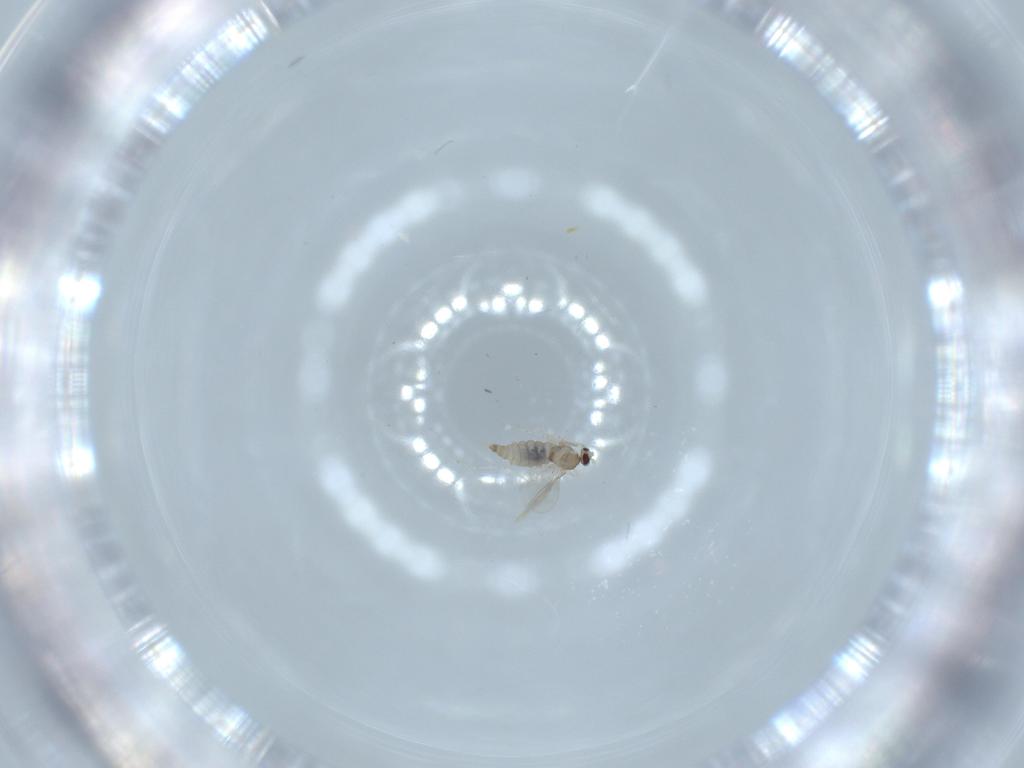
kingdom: Animalia
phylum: Arthropoda
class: Insecta
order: Diptera
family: Cecidomyiidae
